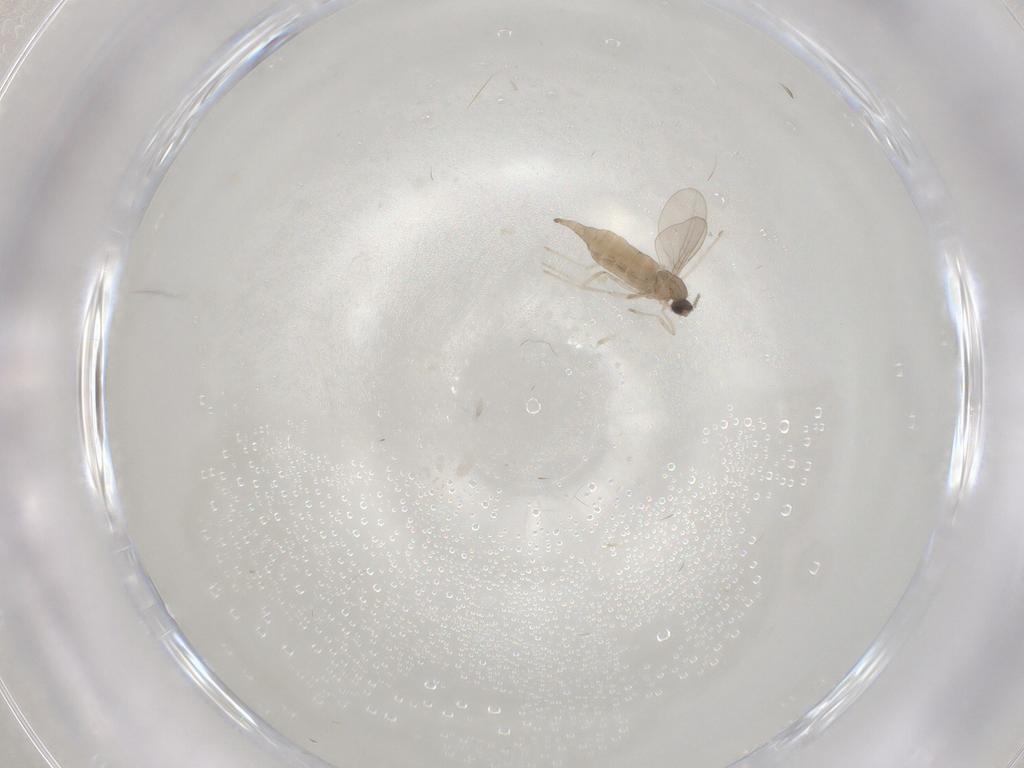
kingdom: Animalia
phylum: Arthropoda
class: Insecta
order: Diptera
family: Cecidomyiidae
